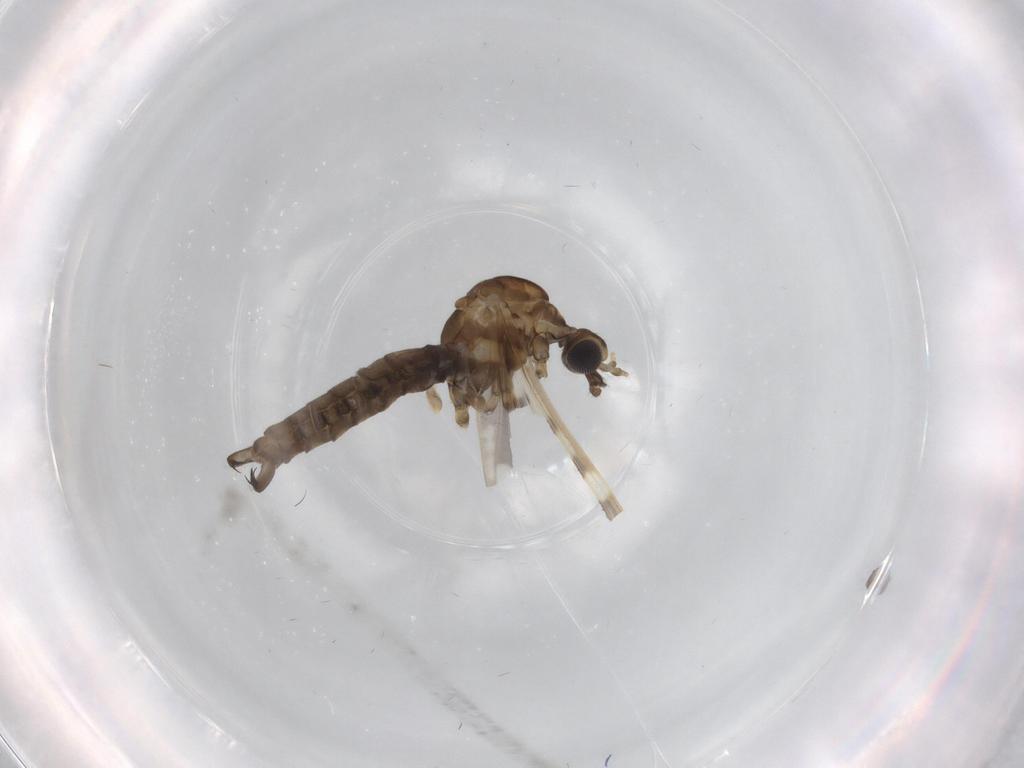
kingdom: Animalia
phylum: Arthropoda
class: Insecta
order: Diptera
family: Limoniidae
